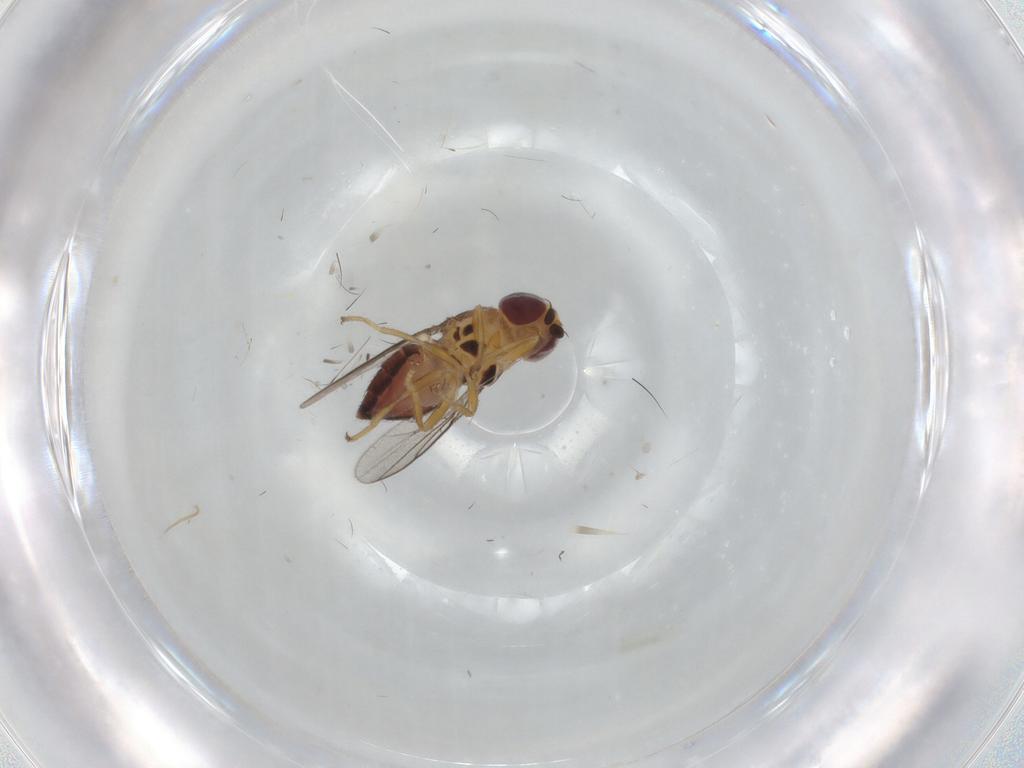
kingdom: Animalia
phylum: Arthropoda
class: Insecta
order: Diptera
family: Chloropidae
